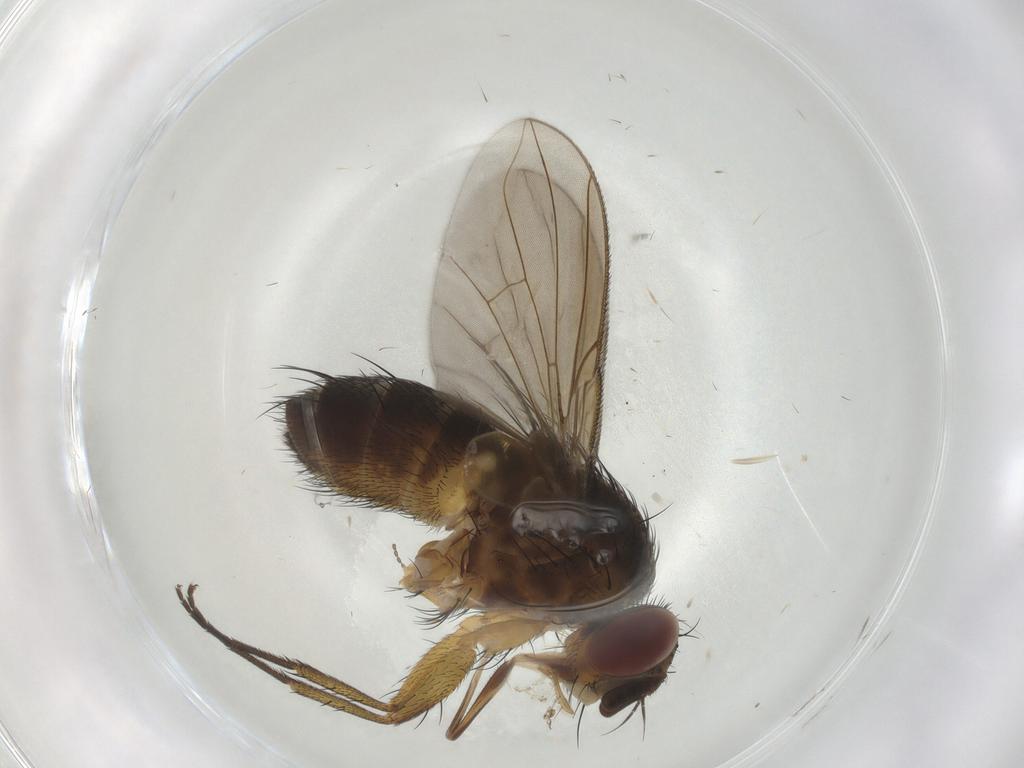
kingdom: Animalia
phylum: Arthropoda
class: Insecta
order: Diptera
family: Tachinidae
